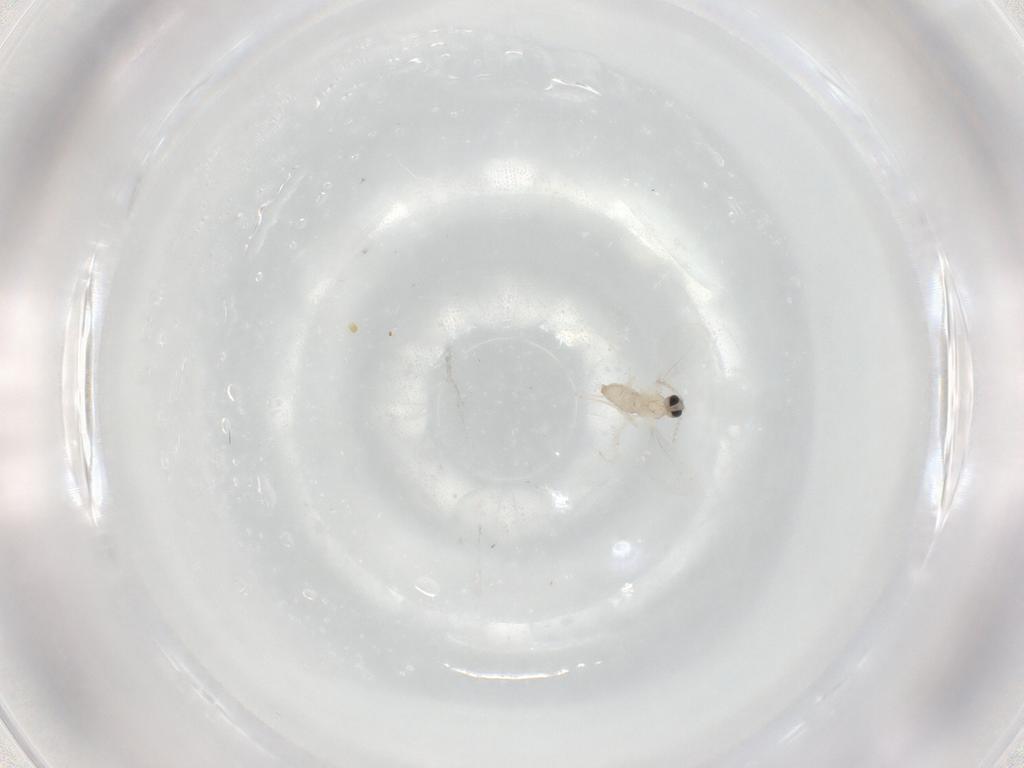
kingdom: Animalia
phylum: Arthropoda
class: Insecta
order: Diptera
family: Cecidomyiidae
